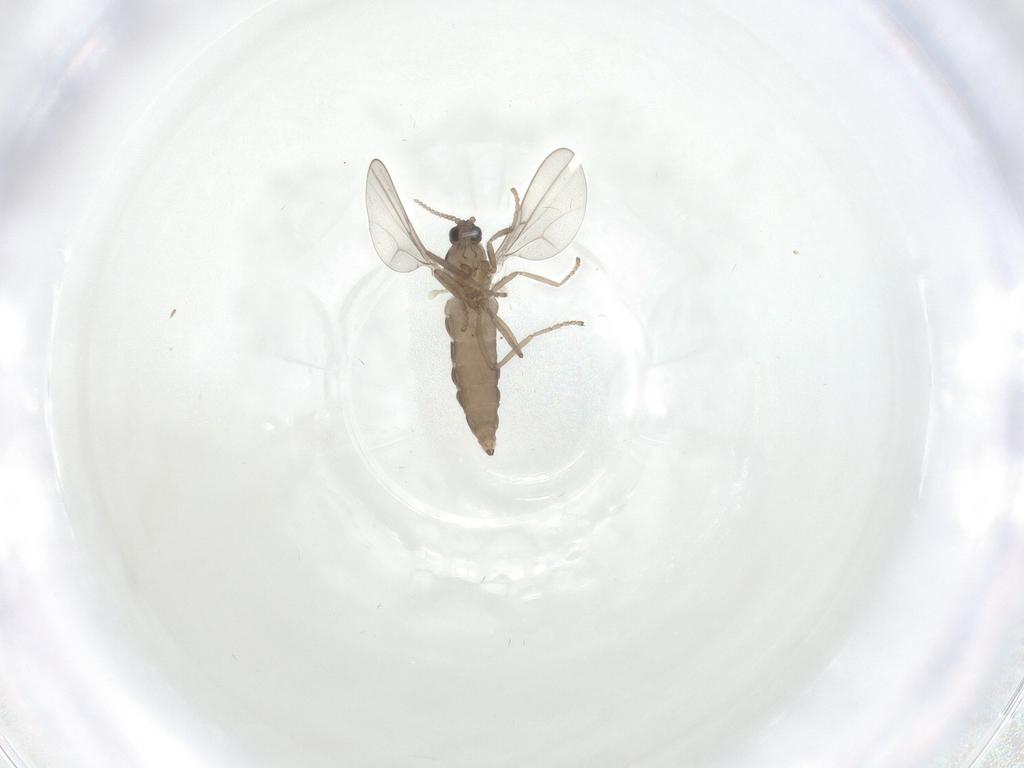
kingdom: Animalia
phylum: Arthropoda
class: Insecta
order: Diptera
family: Cecidomyiidae
